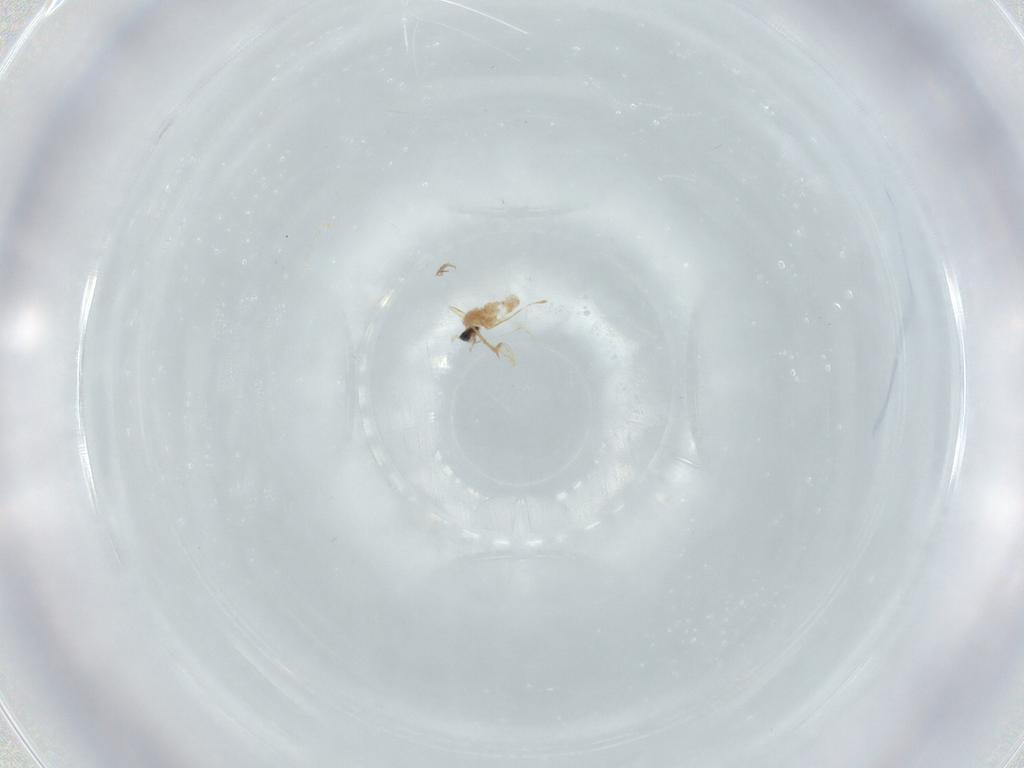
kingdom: Animalia
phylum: Arthropoda
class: Insecta
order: Diptera
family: Cecidomyiidae
